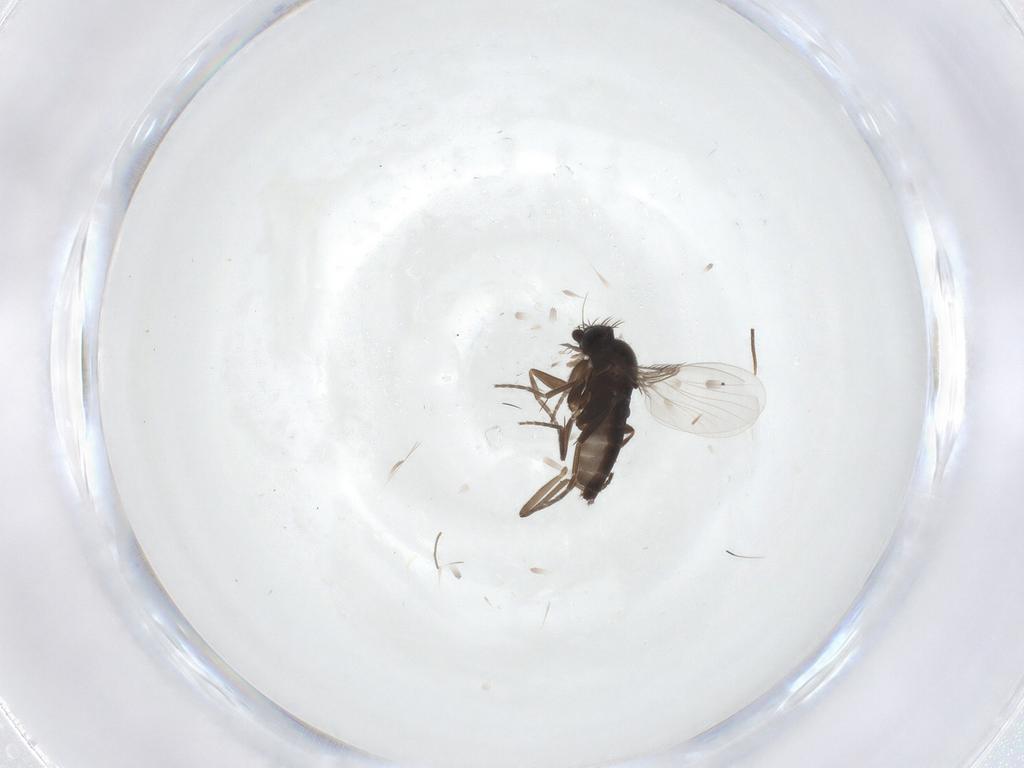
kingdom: Animalia
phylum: Arthropoda
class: Insecta
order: Diptera
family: Phoridae
